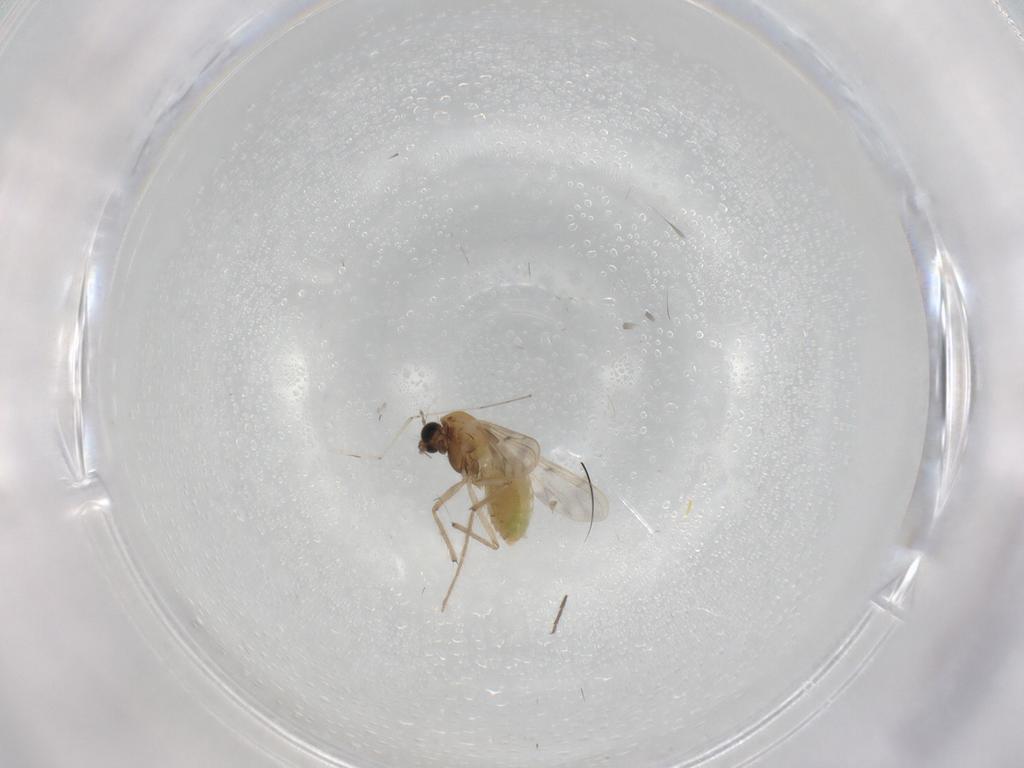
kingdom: Animalia
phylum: Arthropoda
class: Insecta
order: Diptera
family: Chironomidae
